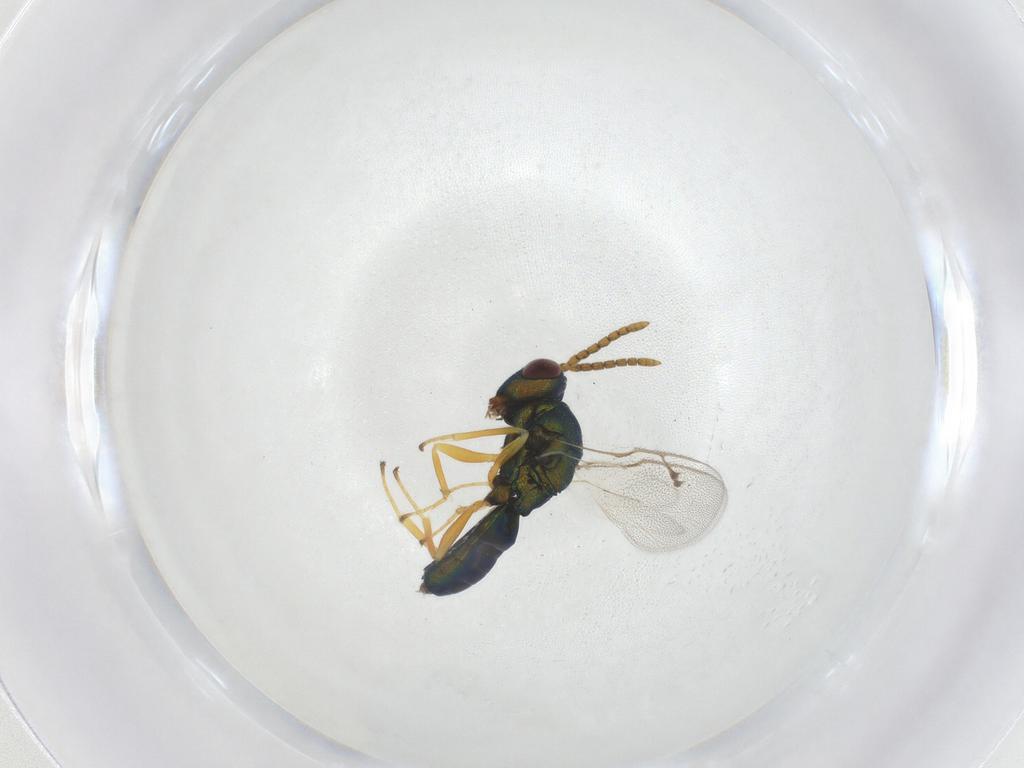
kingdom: Animalia
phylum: Arthropoda
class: Insecta
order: Hymenoptera
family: Pteromalidae
